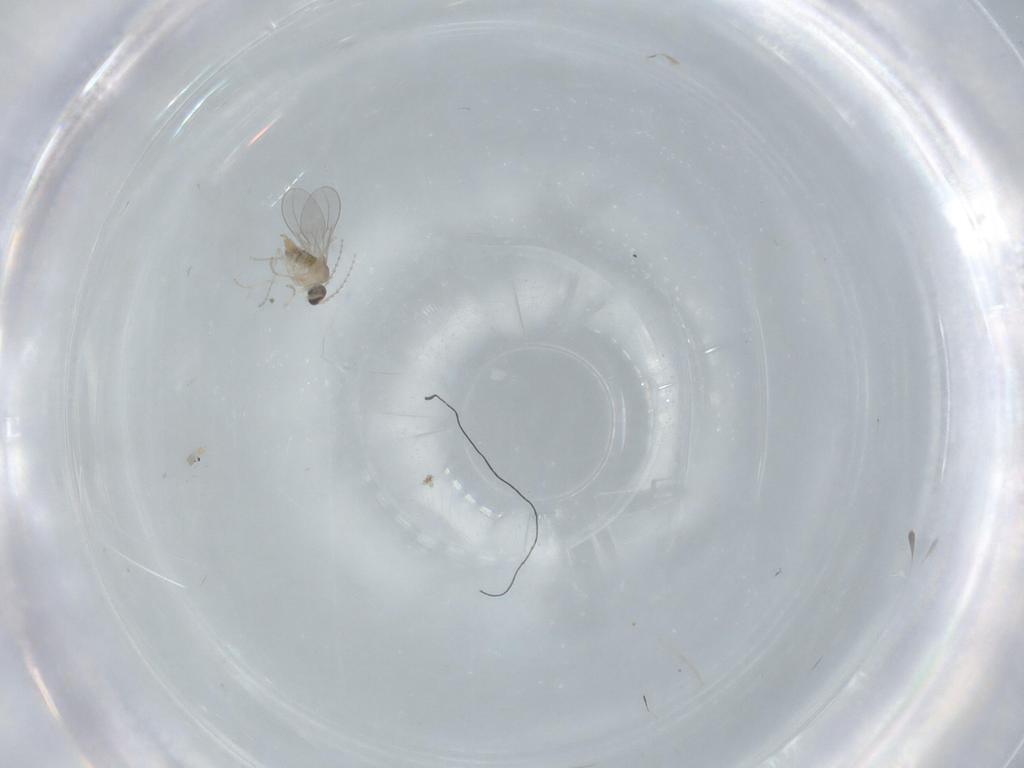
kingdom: Animalia
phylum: Arthropoda
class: Insecta
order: Diptera
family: Cecidomyiidae
